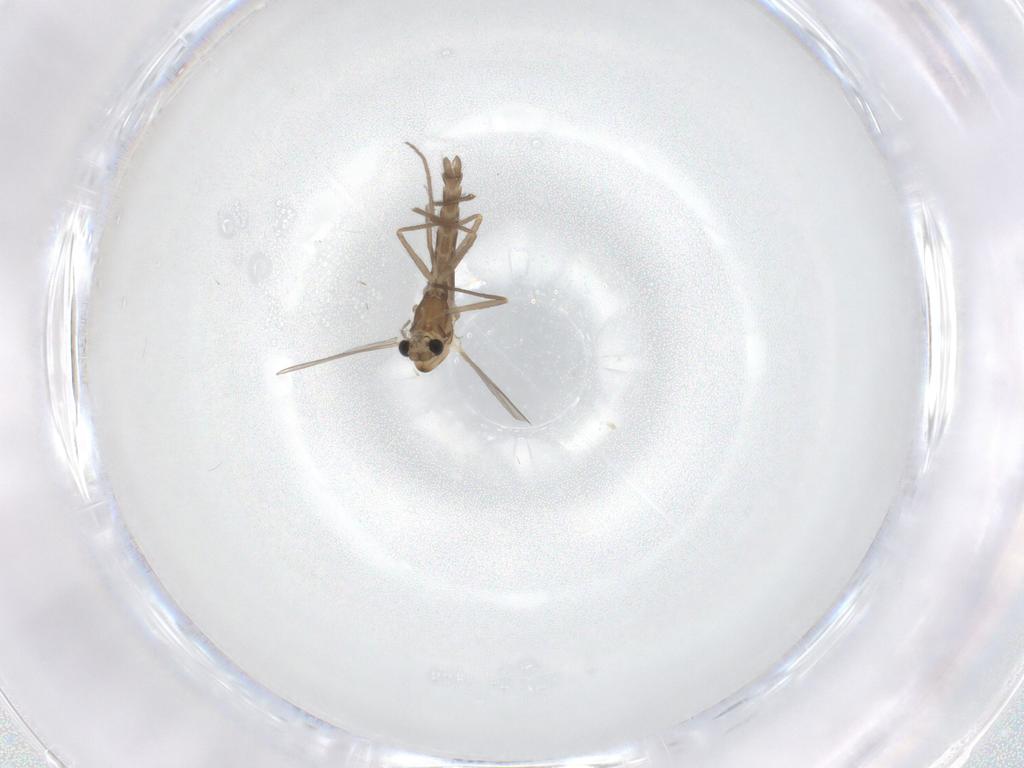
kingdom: Animalia
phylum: Arthropoda
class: Insecta
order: Diptera
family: Chironomidae
